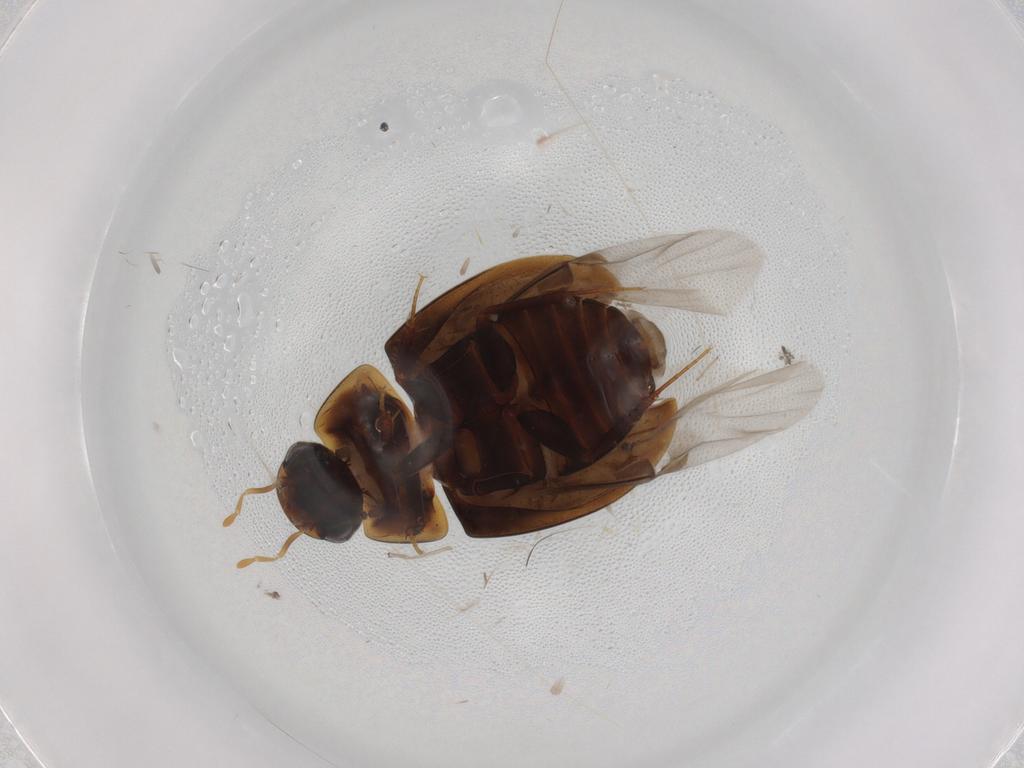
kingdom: Animalia
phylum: Arthropoda
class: Insecta
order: Coleoptera
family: Hydrophilidae
